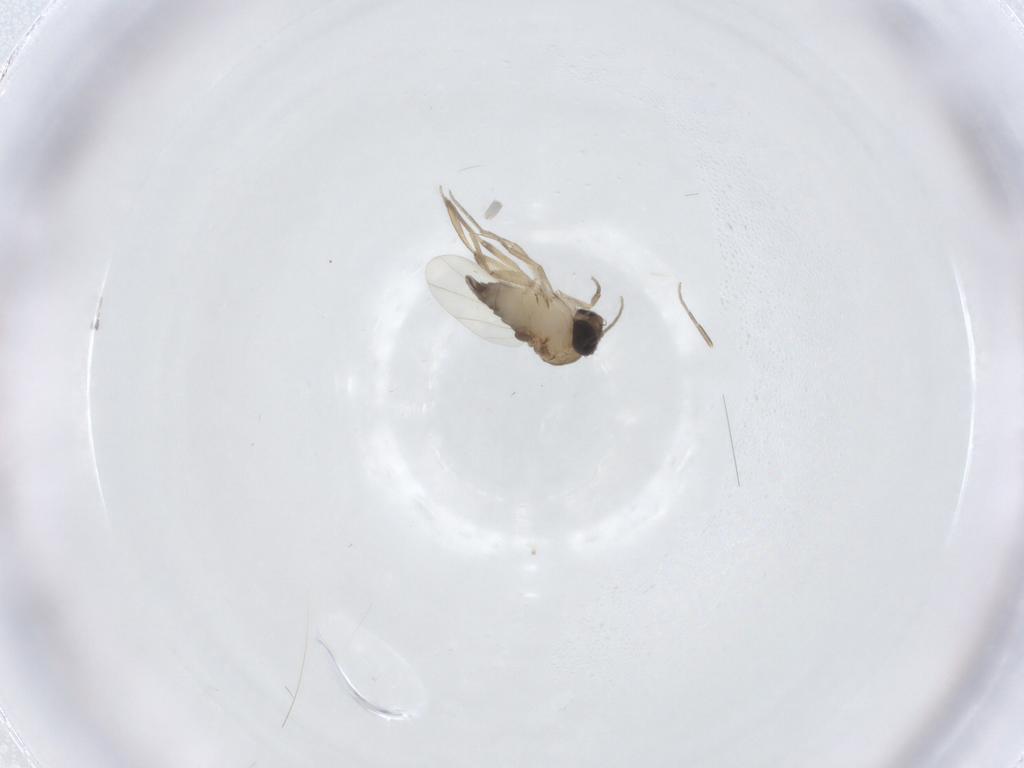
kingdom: Animalia
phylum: Arthropoda
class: Insecta
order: Diptera
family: Phoridae
